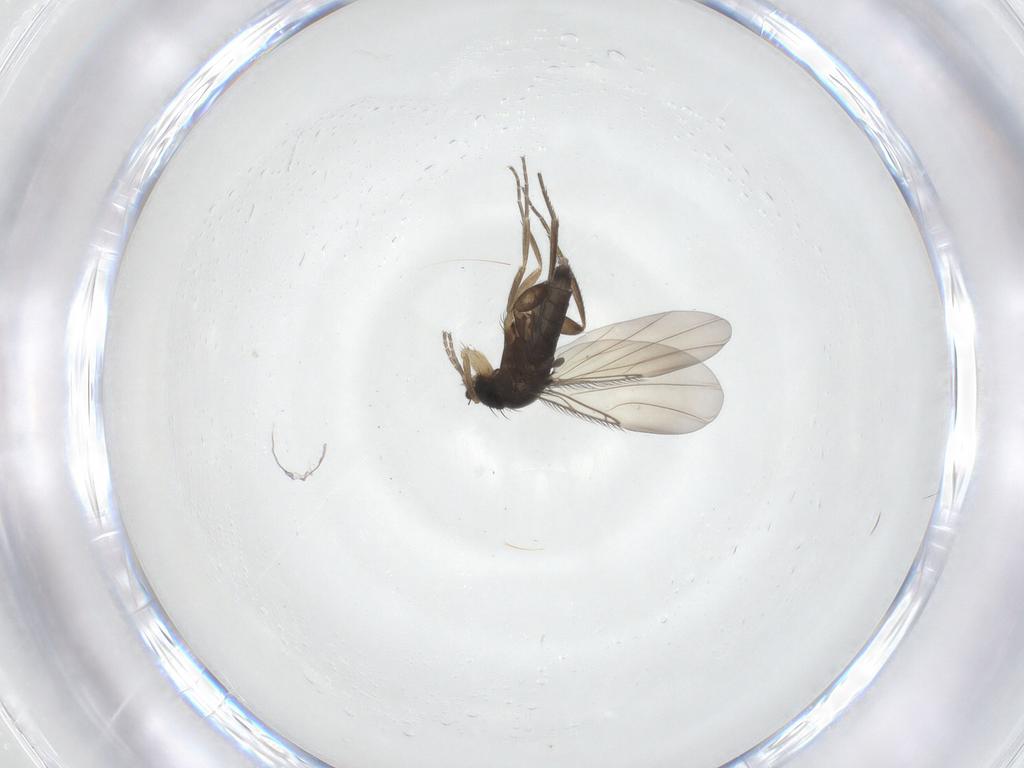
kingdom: Animalia
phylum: Arthropoda
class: Insecta
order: Diptera
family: Phoridae
